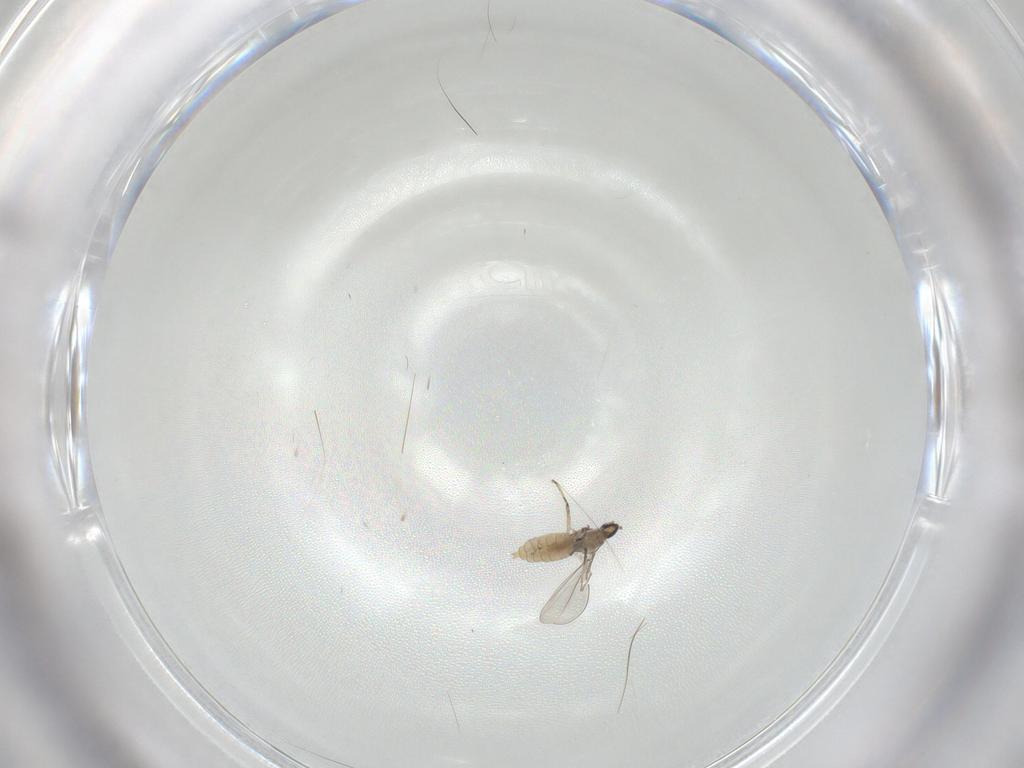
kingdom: Animalia
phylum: Arthropoda
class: Insecta
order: Diptera
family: Cecidomyiidae
